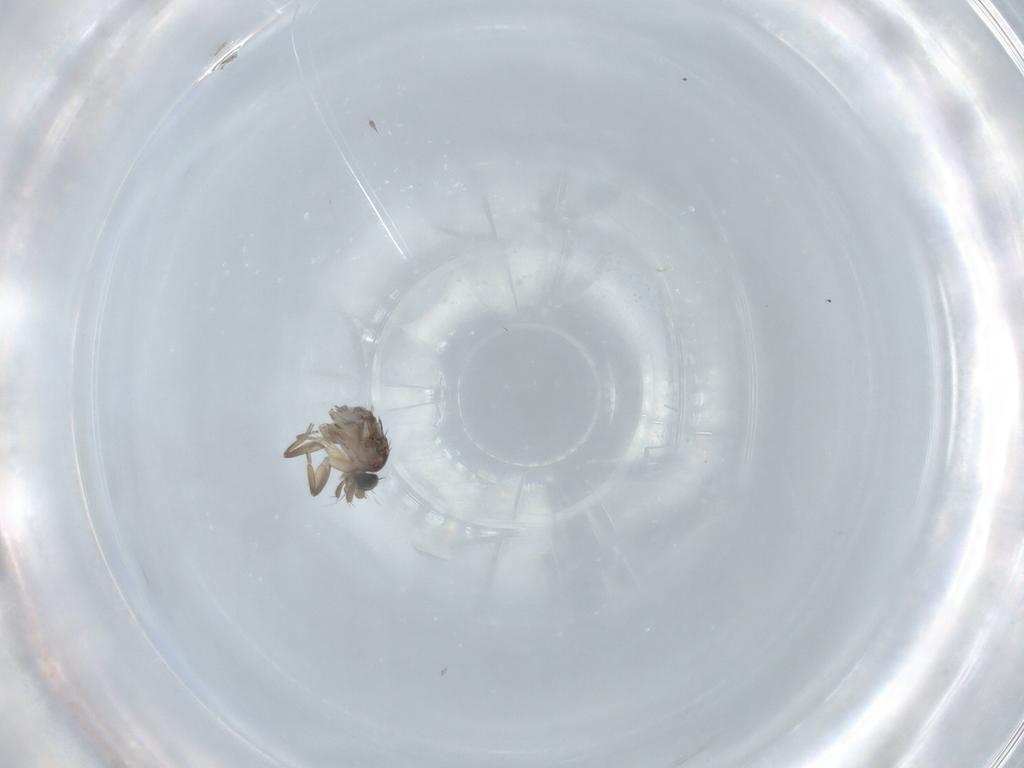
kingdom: Animalia
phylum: Arthropoda
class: Insecta
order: Diptera
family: Phoridae
